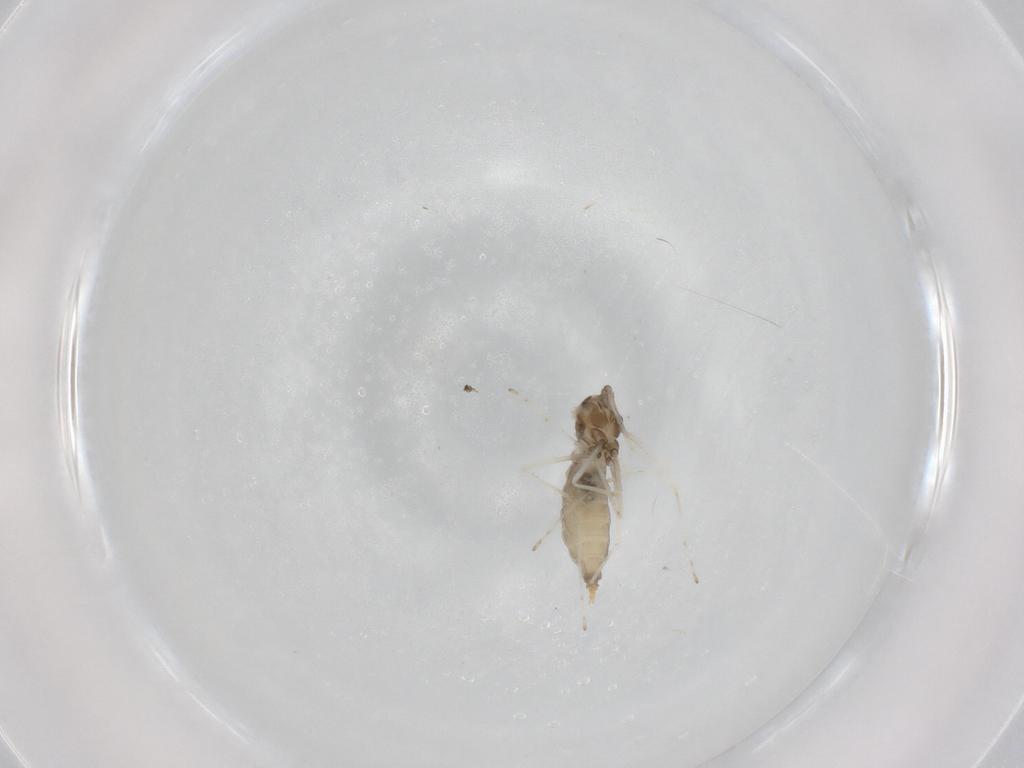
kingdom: Animalia
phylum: Arthropoda
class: Insecta
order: Diptera
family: Cecidomyiidae
